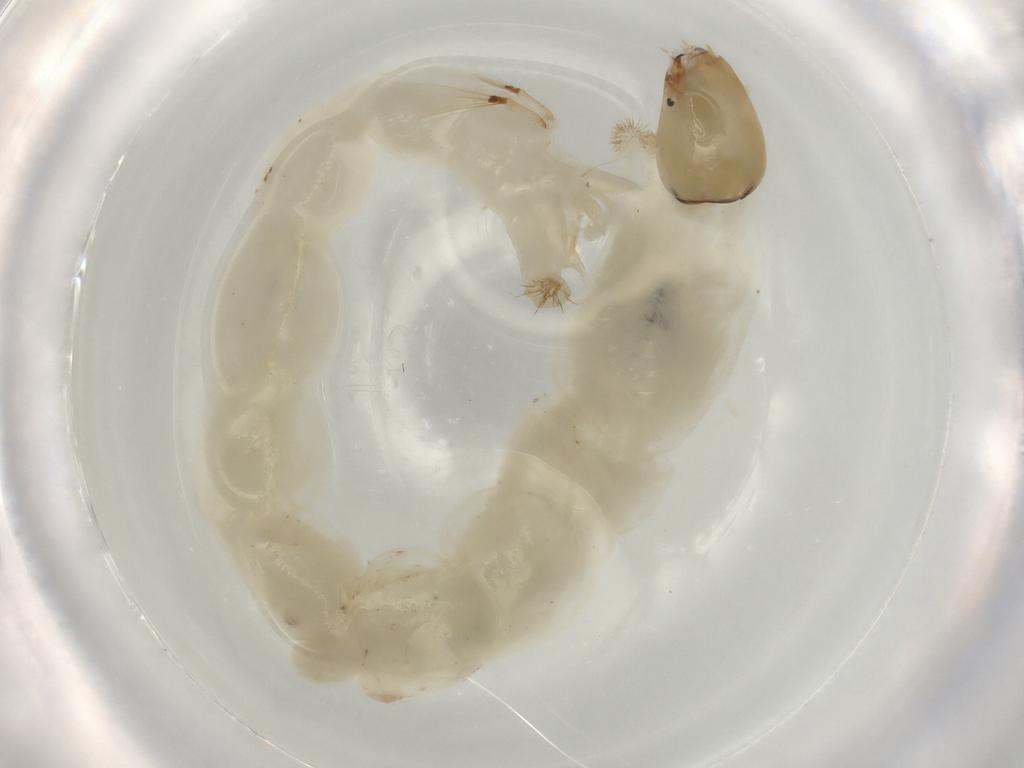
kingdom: Animalia
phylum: Arthropoda
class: Insecta
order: Diptera
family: Chironomidae
